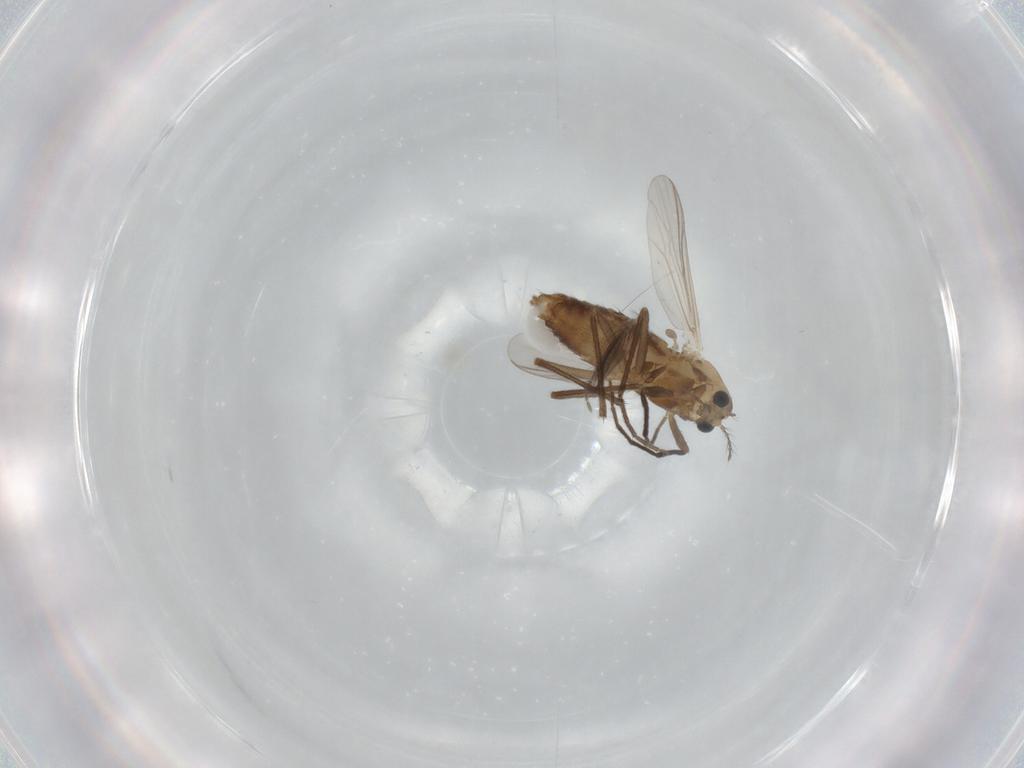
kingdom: Animalia
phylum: Arthropoda
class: Insecta
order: Diptera
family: Chironomidae
